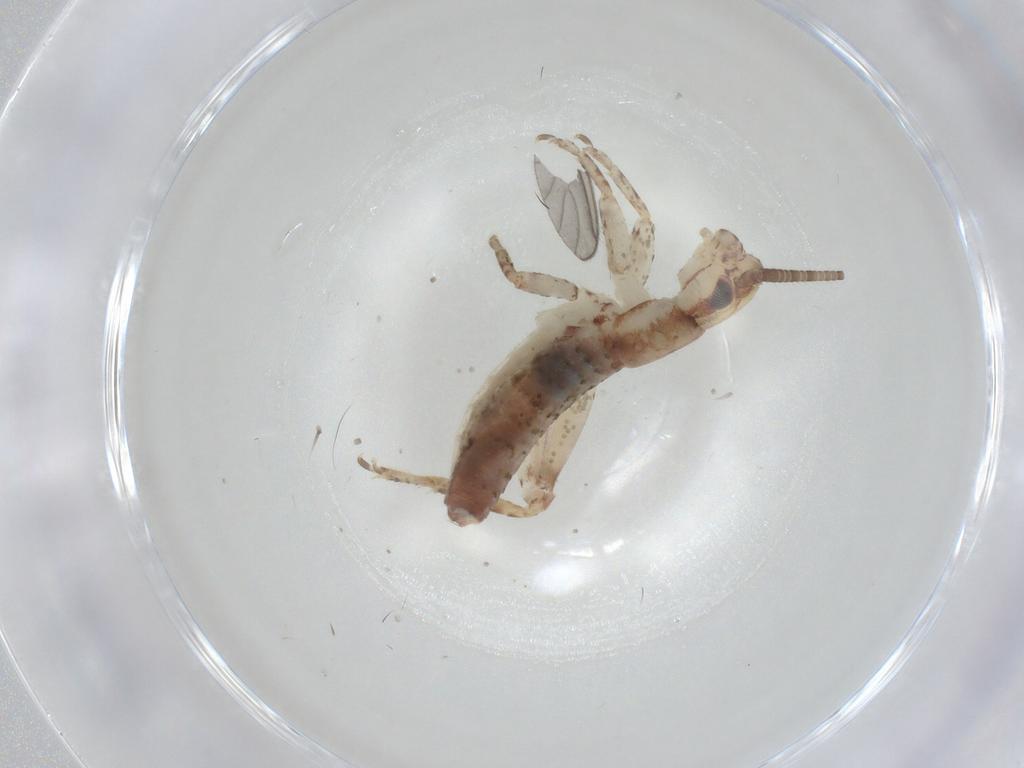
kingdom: Animalia
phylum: Arthropoda
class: Insecta
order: Orthoptera
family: Mogoplistidae
